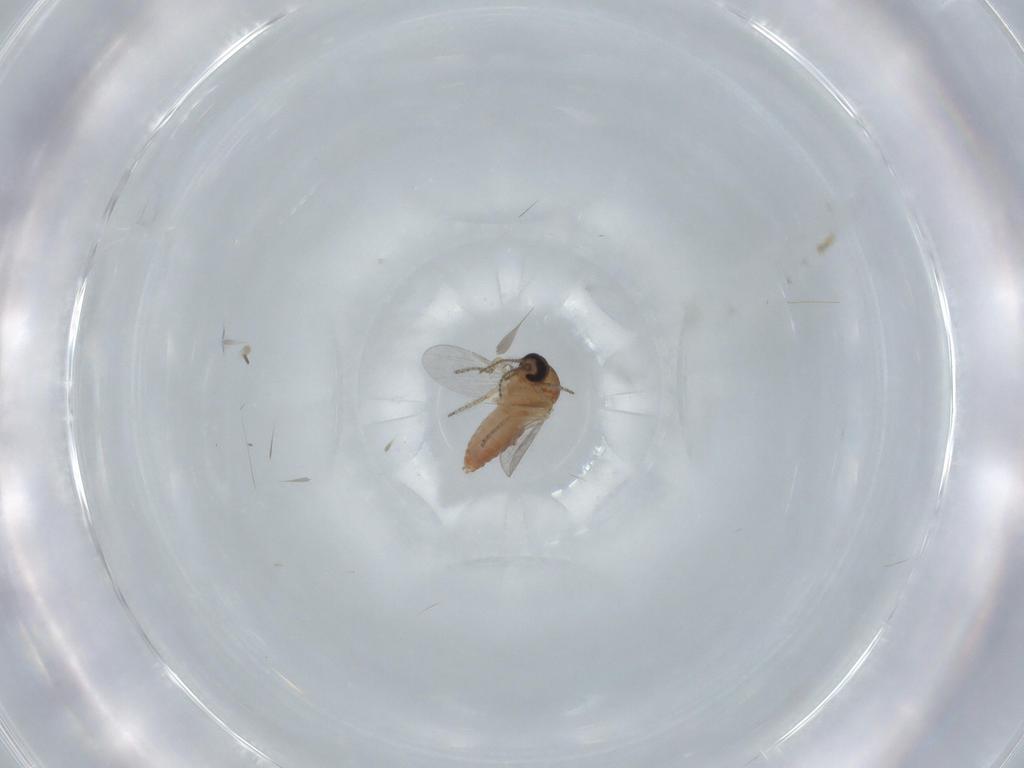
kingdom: Animalia
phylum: Arthropoda
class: Insecta
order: Diptera
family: Ceratopogonidae
